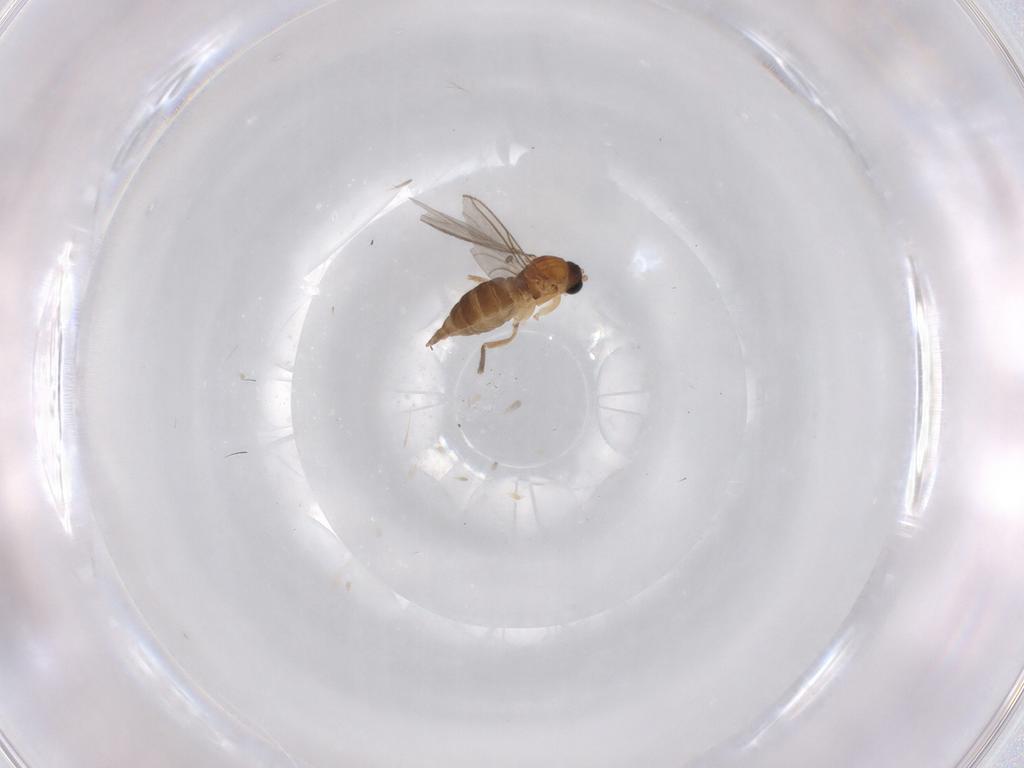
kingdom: Animalia
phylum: Arthropoda
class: Insecta
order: Diptera
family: Sciaridae
